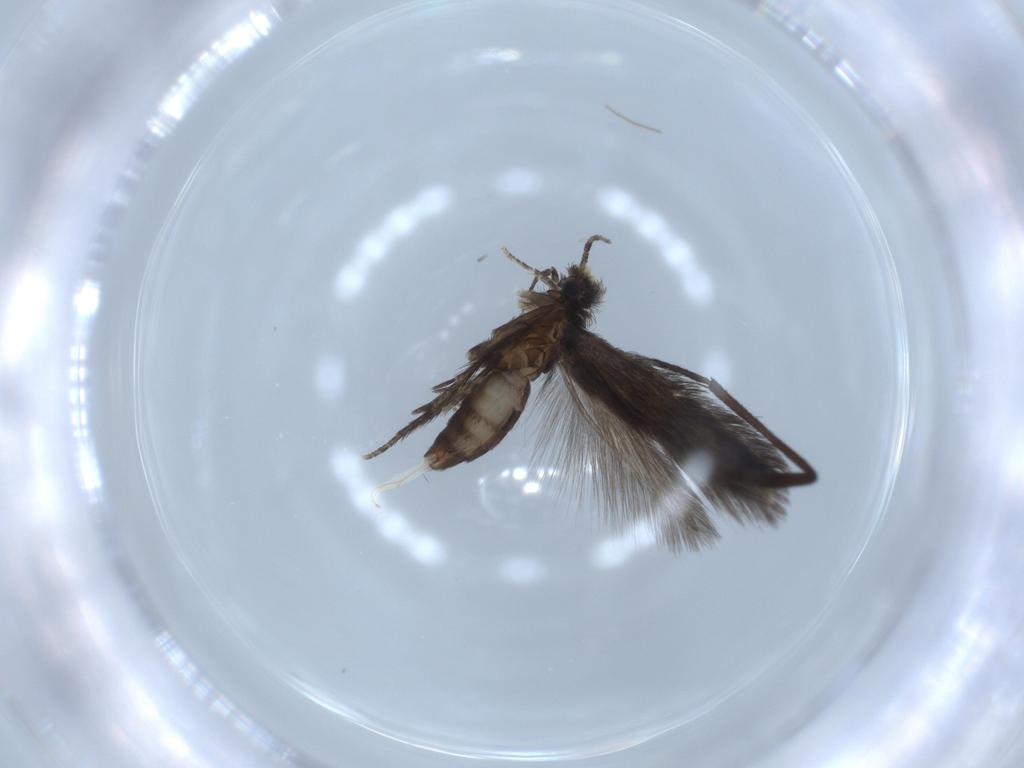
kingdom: Animalia
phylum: Arthropoda
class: Insecta
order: Trichoptera
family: Hydroptilidae
